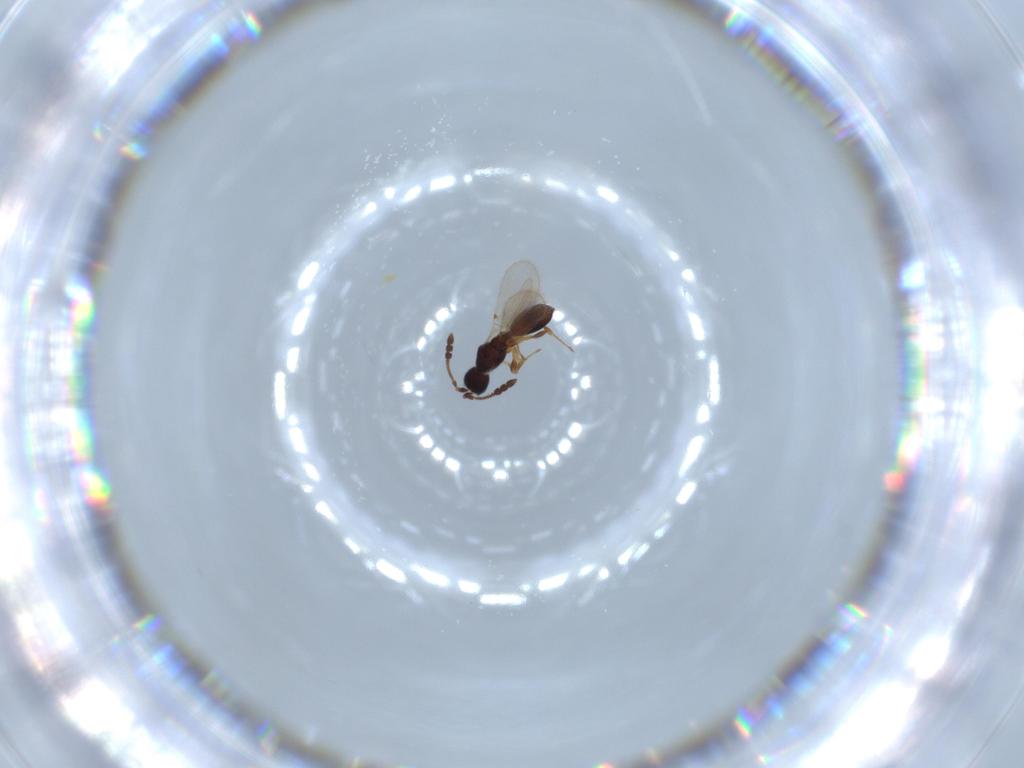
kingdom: Animalia
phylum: Arthropoda
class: Insecta
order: Hymenoptera
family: Diapriidae
